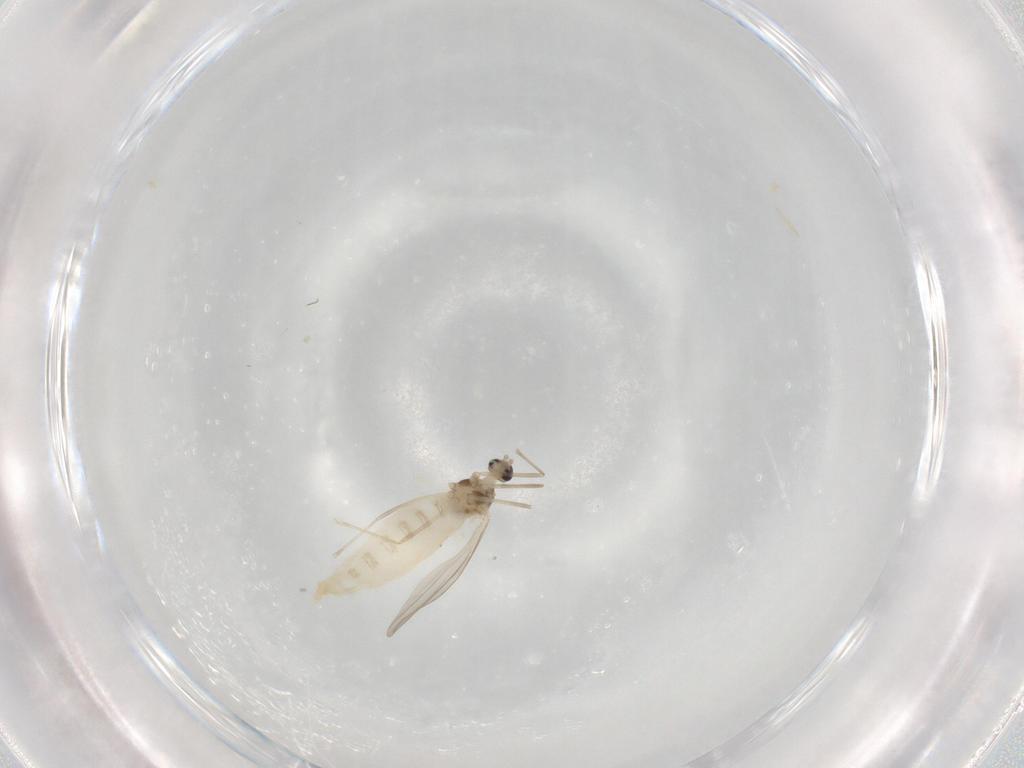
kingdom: Animalia
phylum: Arthropoda
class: Insecta
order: Diptera
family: Cecidomyiidae
